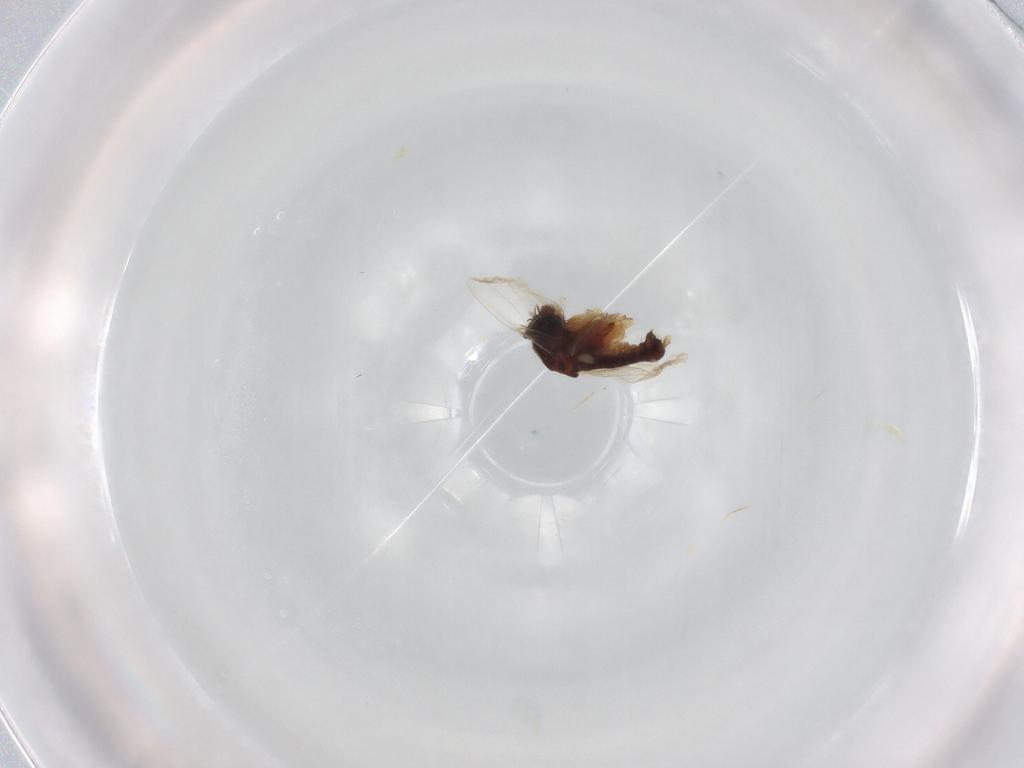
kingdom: Animalia
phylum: Arthropoda
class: Insecta
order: Diptera
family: Phoridae
